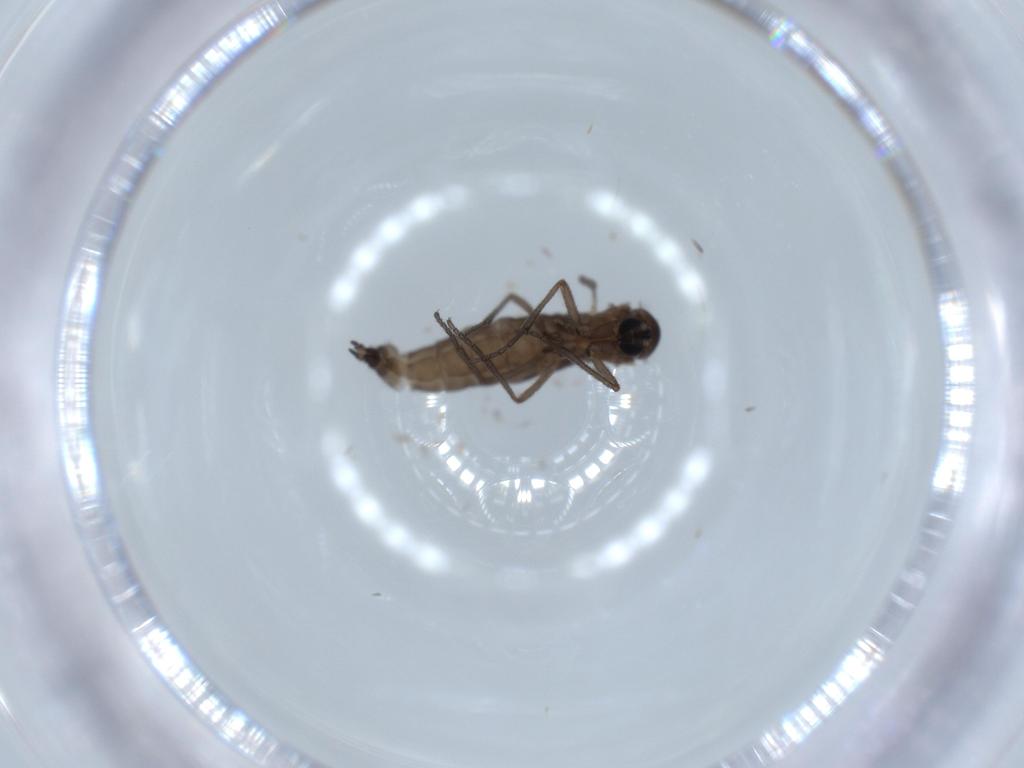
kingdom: Animalia
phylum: Arthropoda
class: Insecta
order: Diptera
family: Sciaridae
